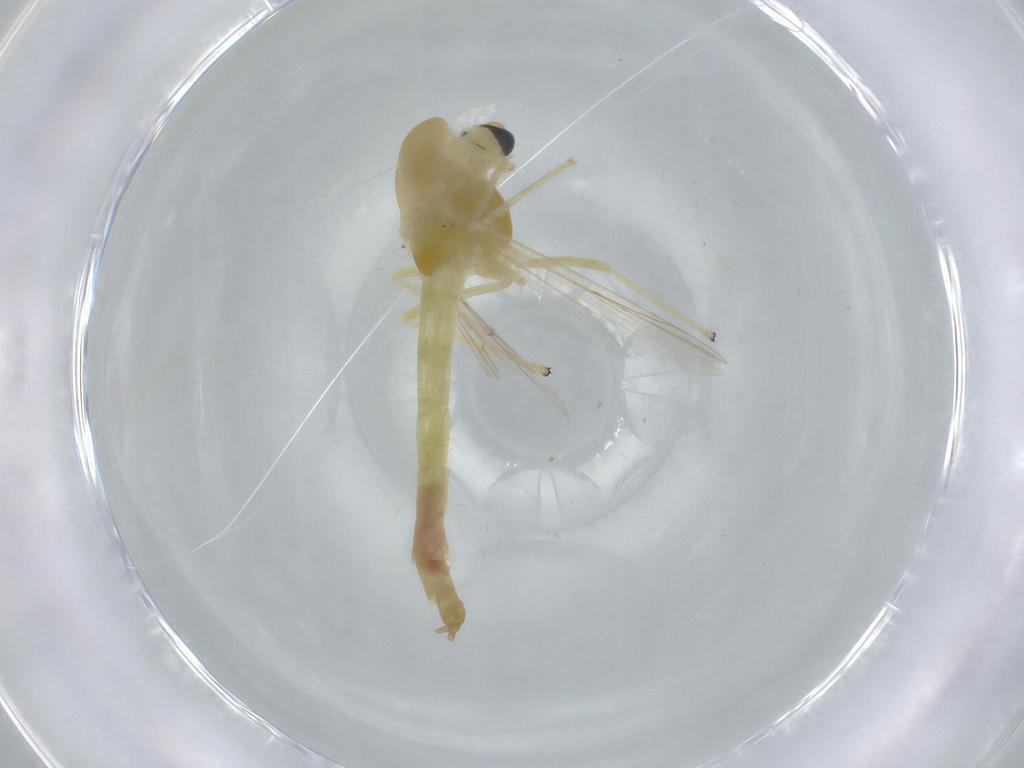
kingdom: Animalia
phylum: Arthropoda
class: Insecta
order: Diptera
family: Chironomidae
